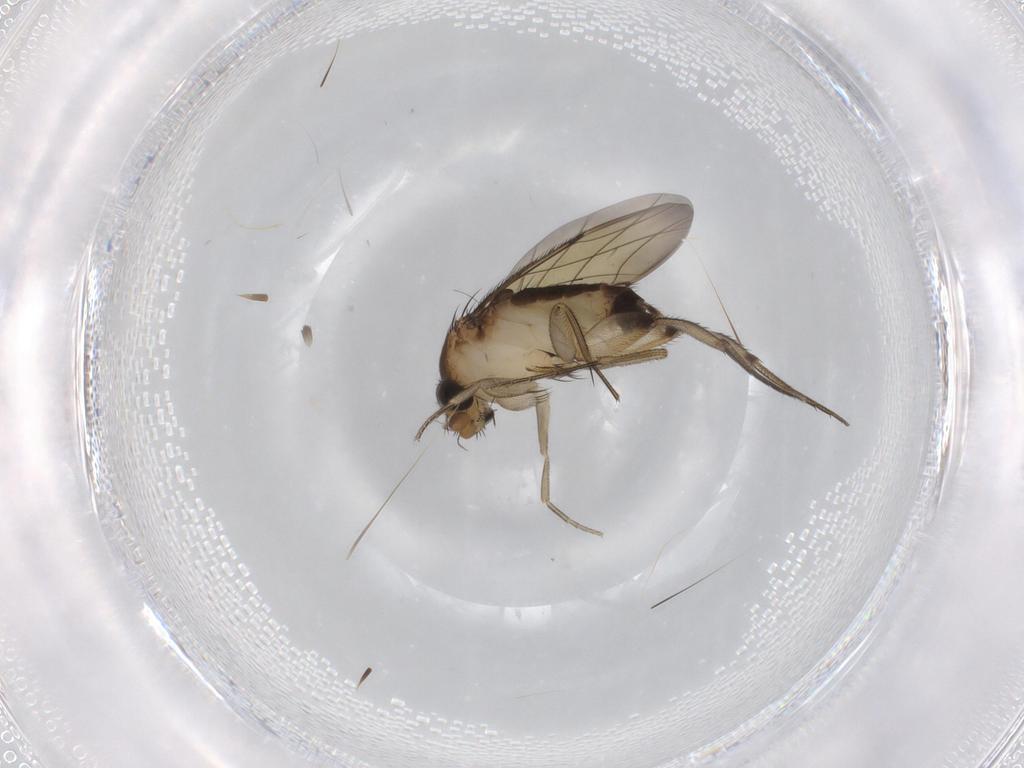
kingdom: Animalia
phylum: Arthropoda
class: Insecta
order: Diptera
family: Phoridae
